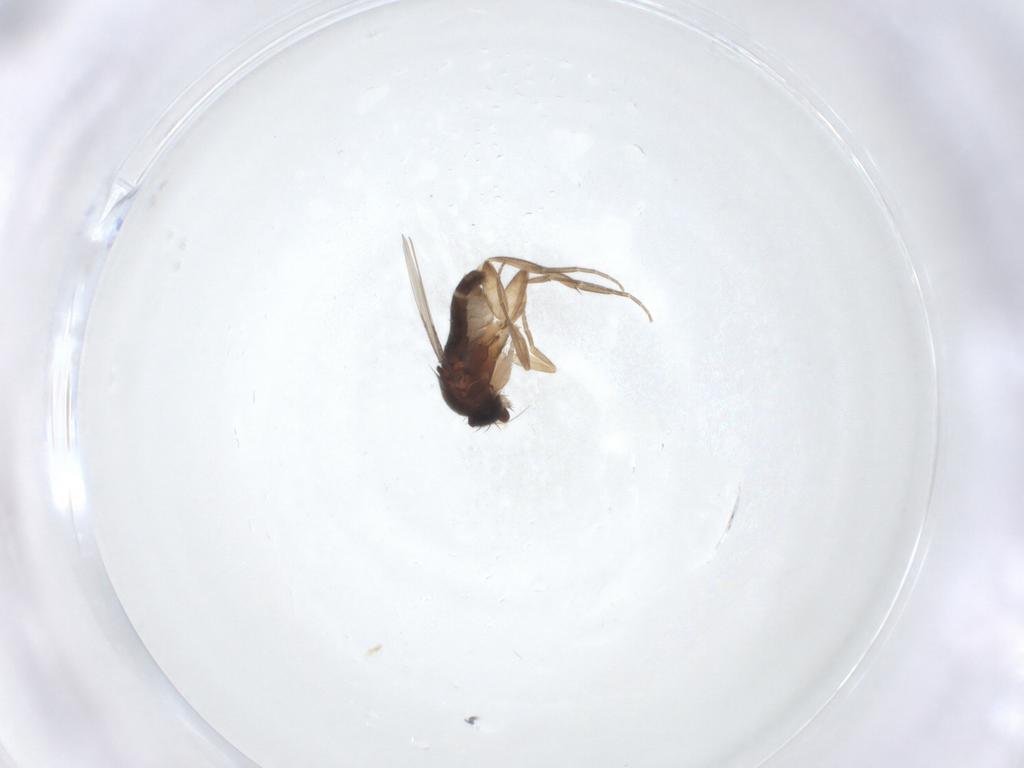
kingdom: Animalia
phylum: Arthropoda
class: Insecta
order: Diptera
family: Phoridae
